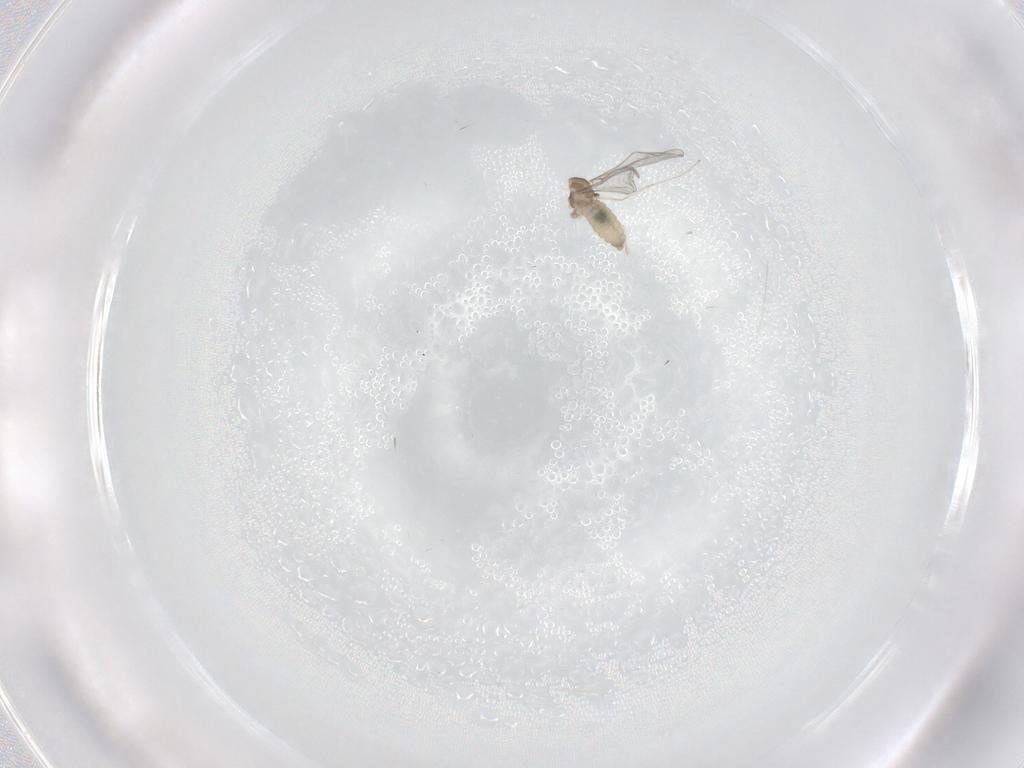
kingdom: Animalia
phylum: Arthropoda
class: Insecta
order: Diptera
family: Cecidomyiidae
